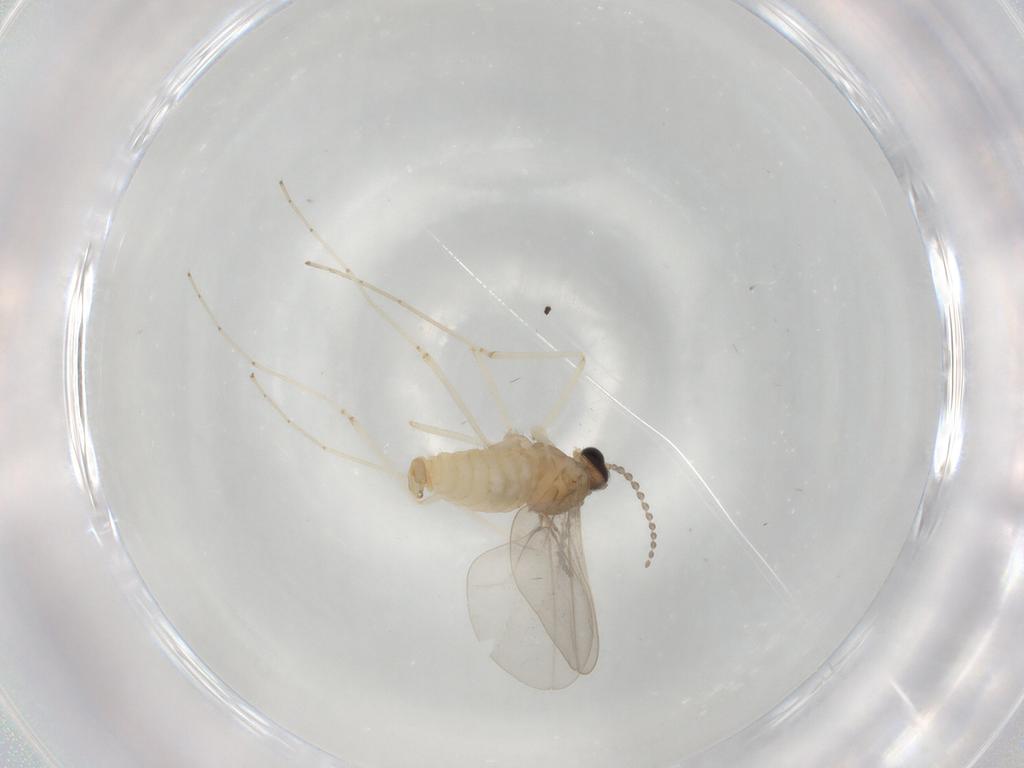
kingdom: Animalia
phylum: Arthropoda
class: Insecta
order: Diptera
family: Cecidomyiidae
